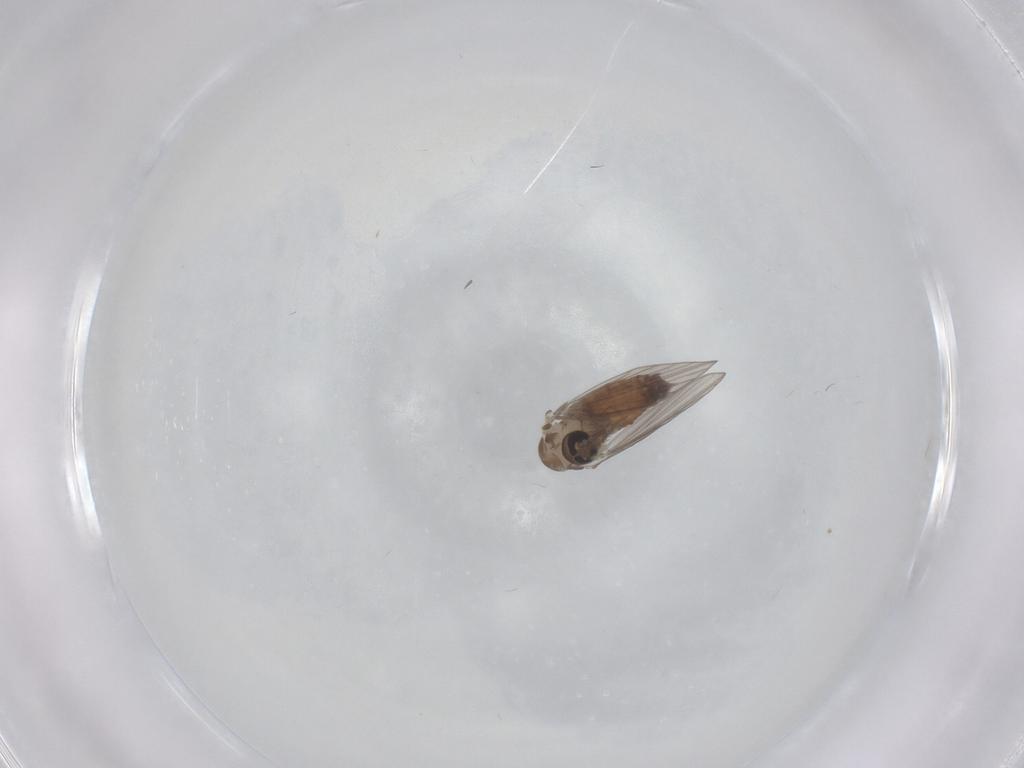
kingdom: Animalia
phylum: Arthropoda
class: Insecta
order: Diptera
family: Psychodidae
